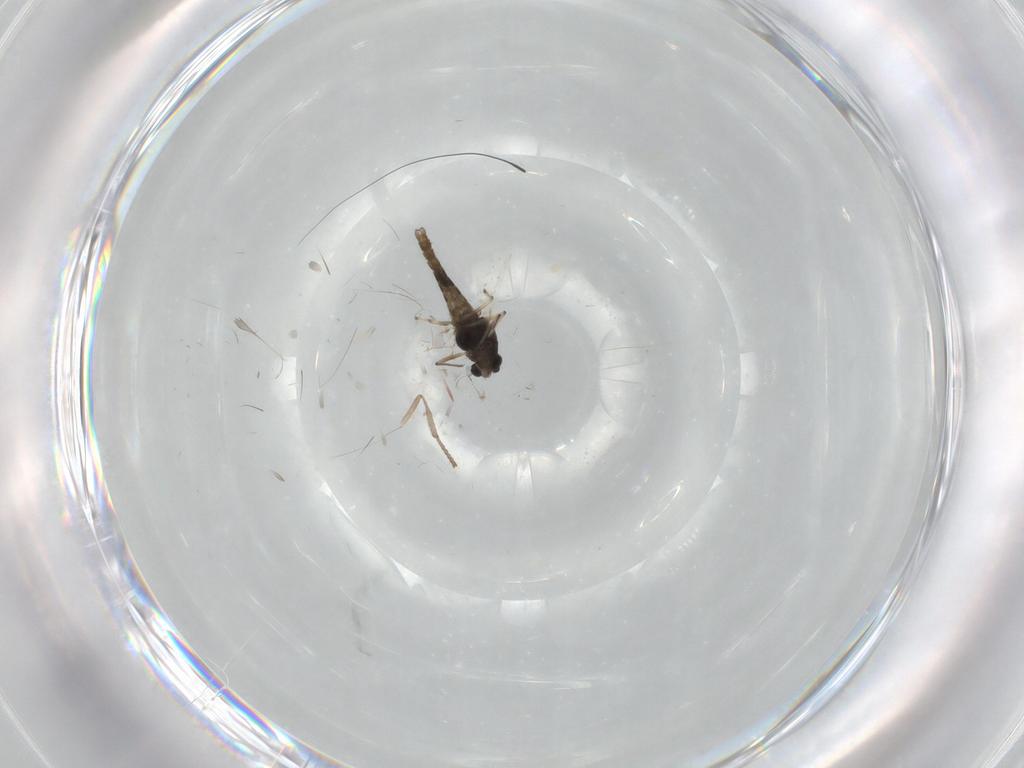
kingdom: Animalia
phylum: Arthropoda
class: Insecta
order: Diptera
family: Chironomidae
